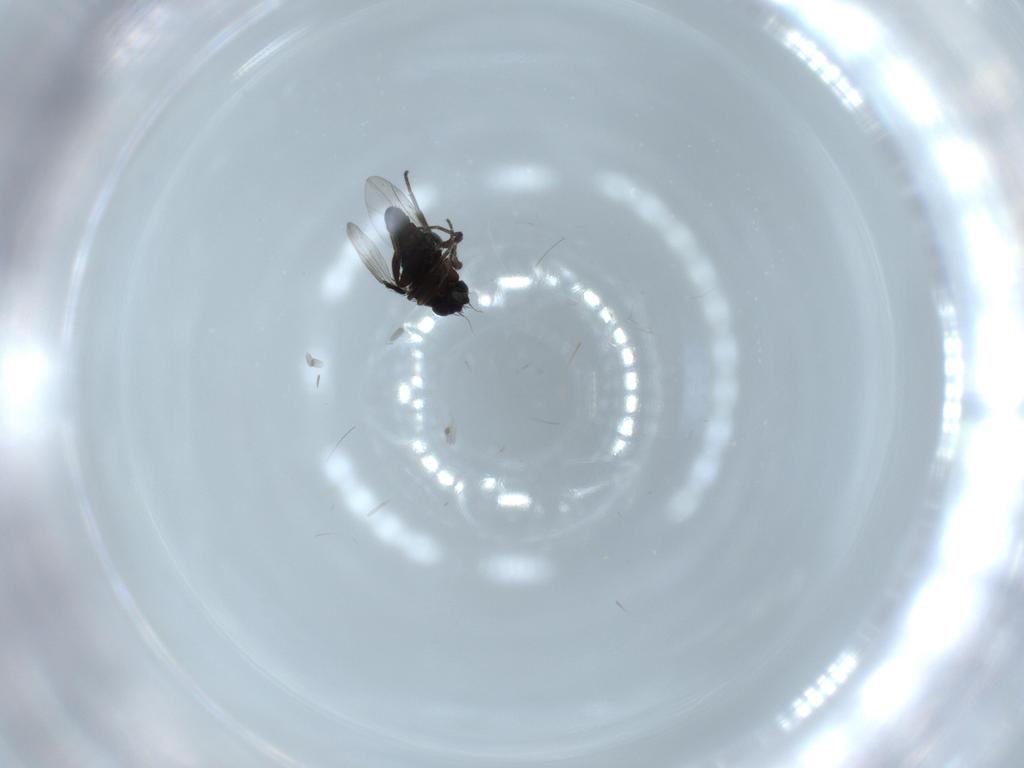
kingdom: Animalia
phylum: Arthropoda
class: Insecta
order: Diptera
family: Phoridae
